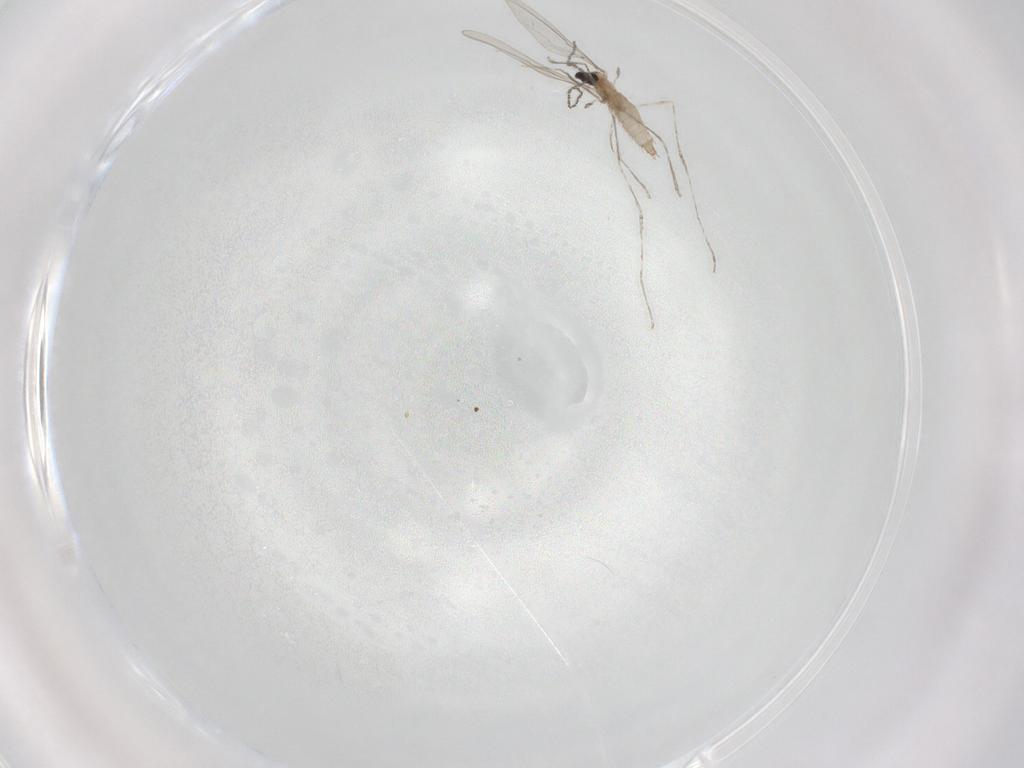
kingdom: Animalia
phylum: Arthropoda
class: Insecta
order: Diptera
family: Cecidomyiidae
